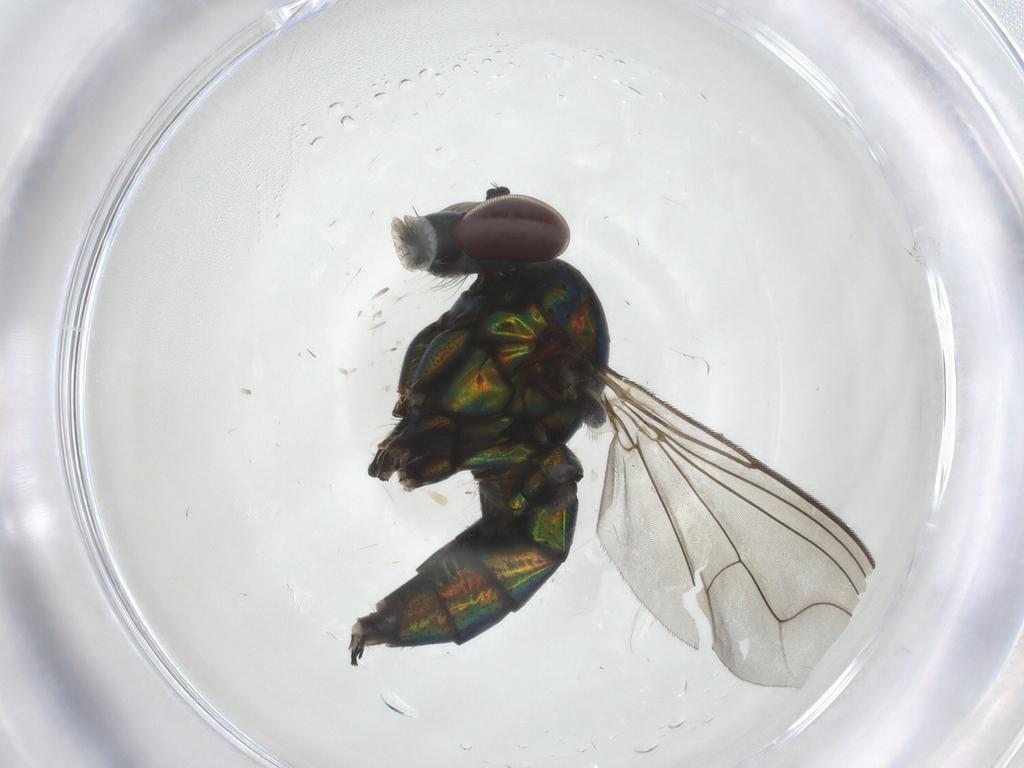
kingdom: Animalia
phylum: Arthropoda
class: Insecta
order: Diptera
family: Dolichopodidae
